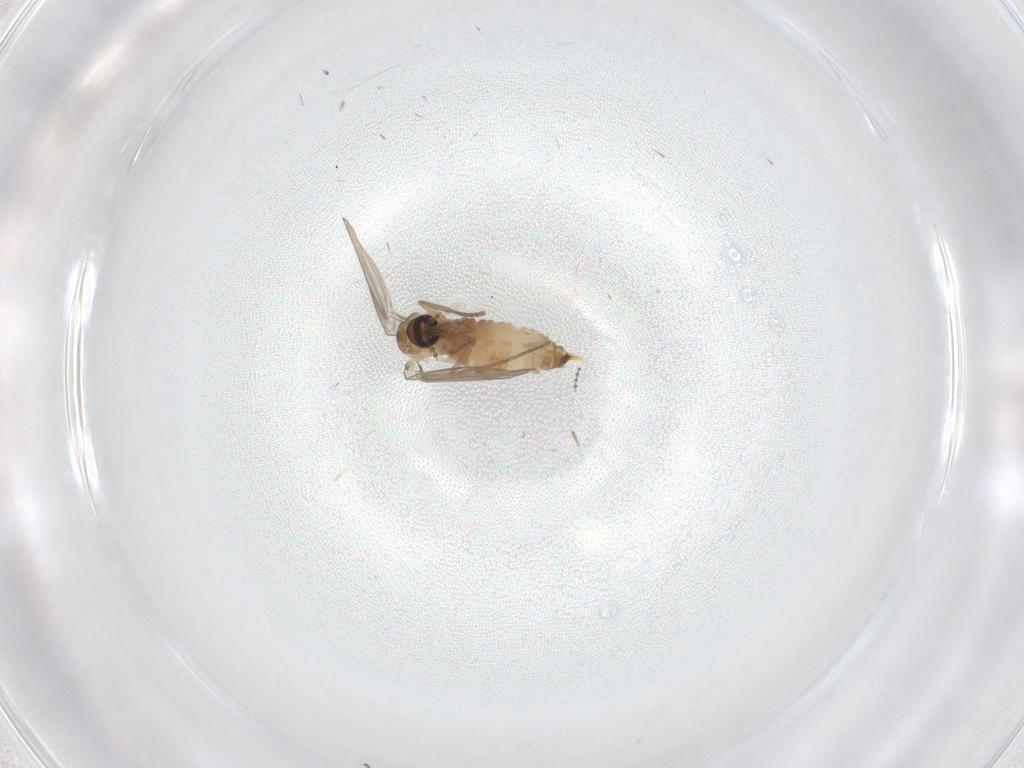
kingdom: Animalia
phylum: Arthropoda
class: Insecta
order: Diptera
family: Psychodidae
